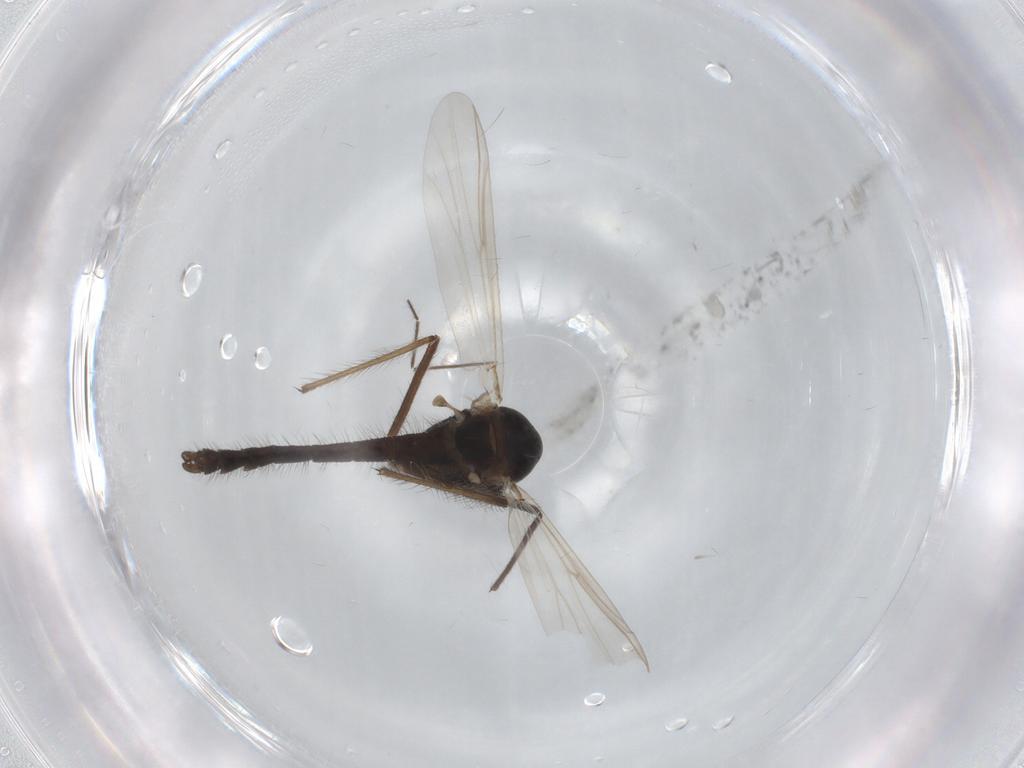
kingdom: Animalia
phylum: Arthropoda
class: Insecta
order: Diptera
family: Chironomidae
